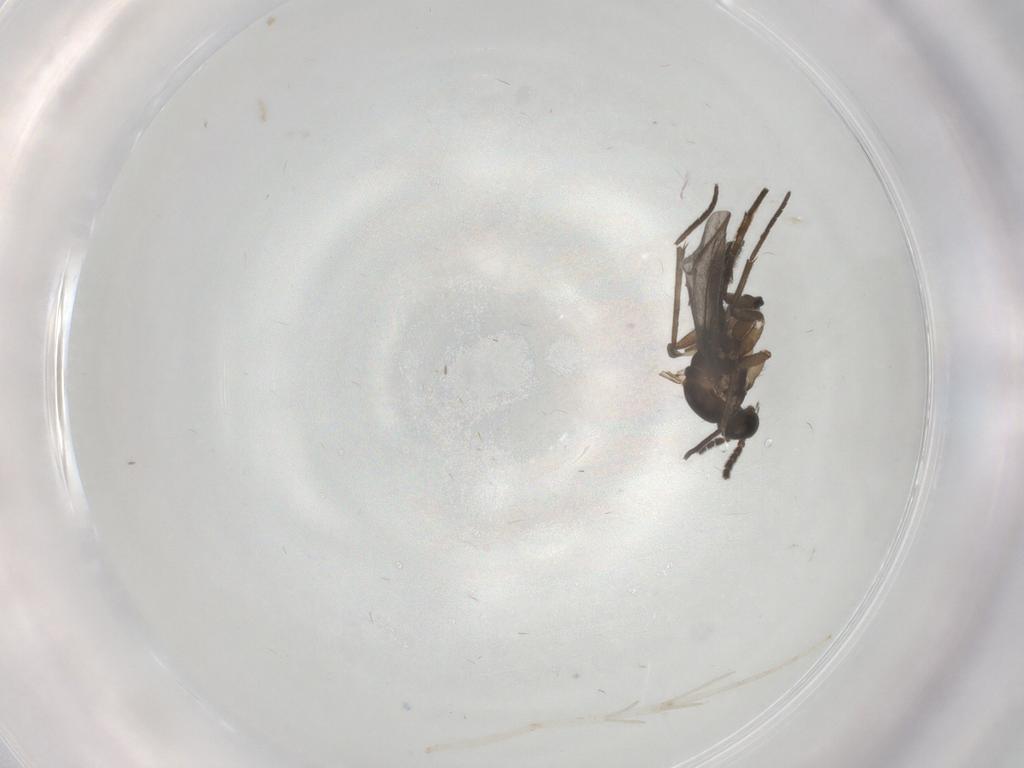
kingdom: Animalia
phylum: Arthropoda
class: Insecta
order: Diptera
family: Sciaridae
